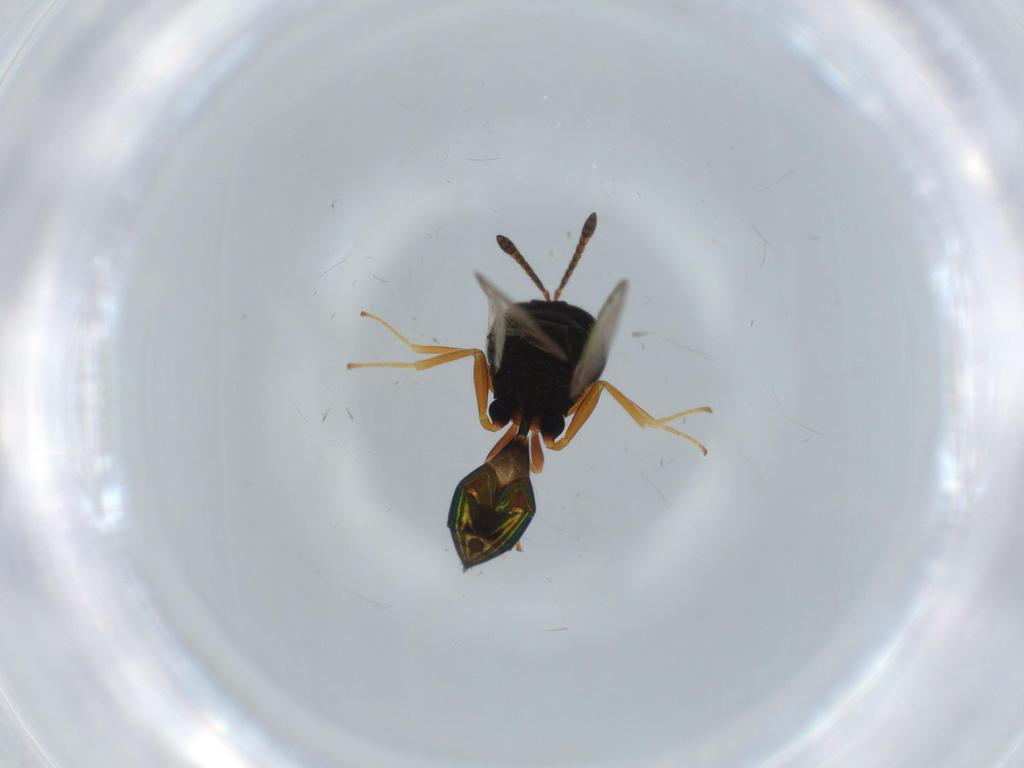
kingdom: Animalia
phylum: Arthropoda
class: Insecta
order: Hymenoptera
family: Pteromalidae
